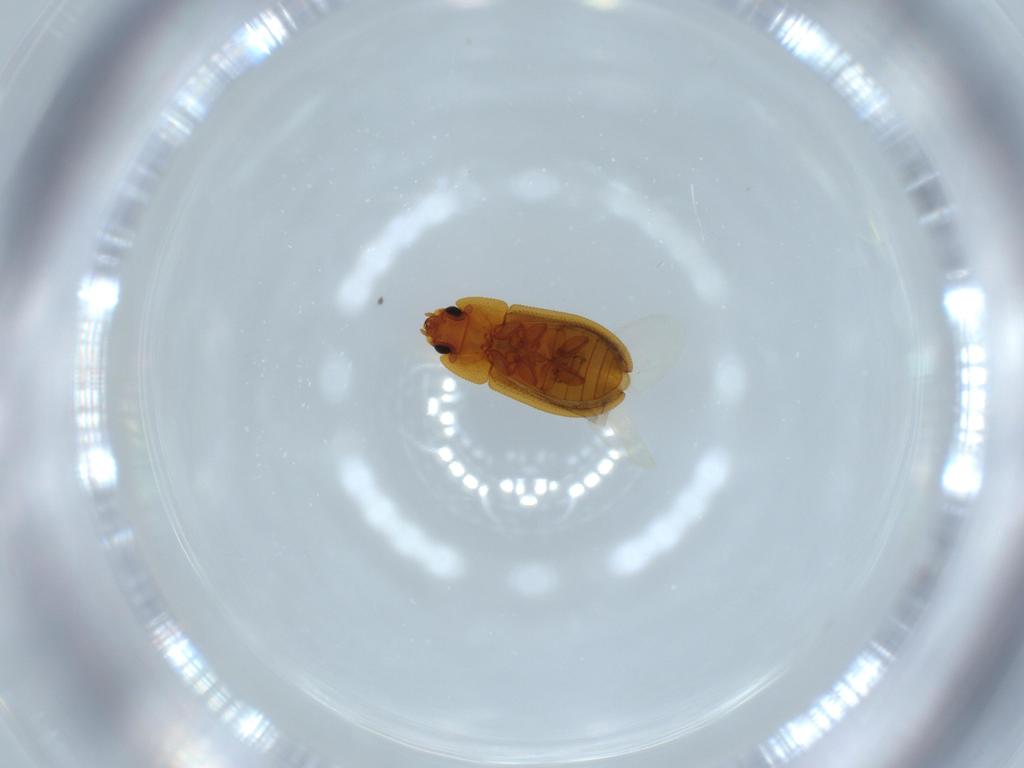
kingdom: Animalia
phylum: Arthropoda
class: Insecta
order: Coleoptera
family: Zopheridae
